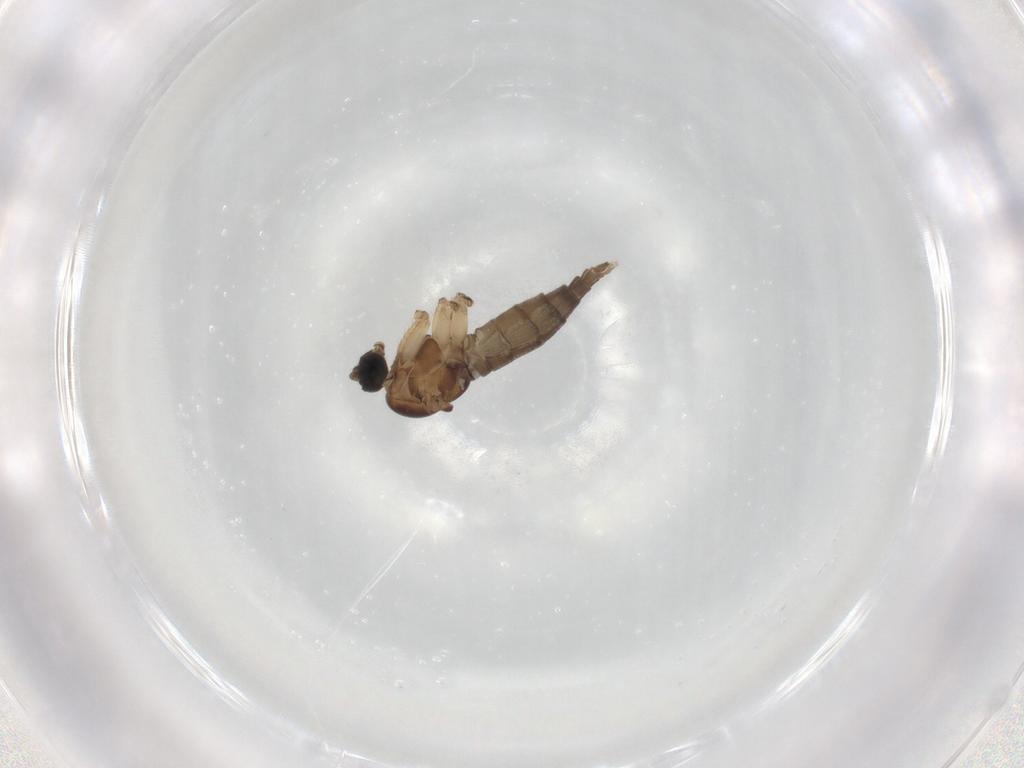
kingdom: Animalia
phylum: Arthropoda
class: Insecta
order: Diptera
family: Sciaridae
